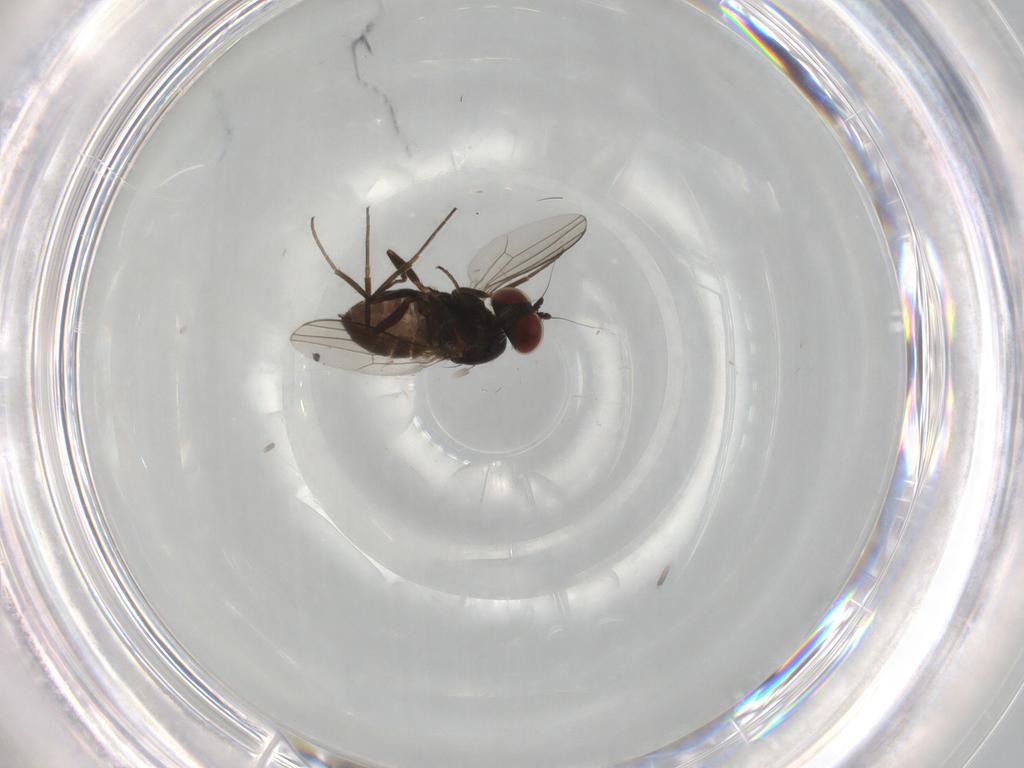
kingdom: Animalia
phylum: Arthropoda
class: Insecta
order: Diptera
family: Dolichopodidae
